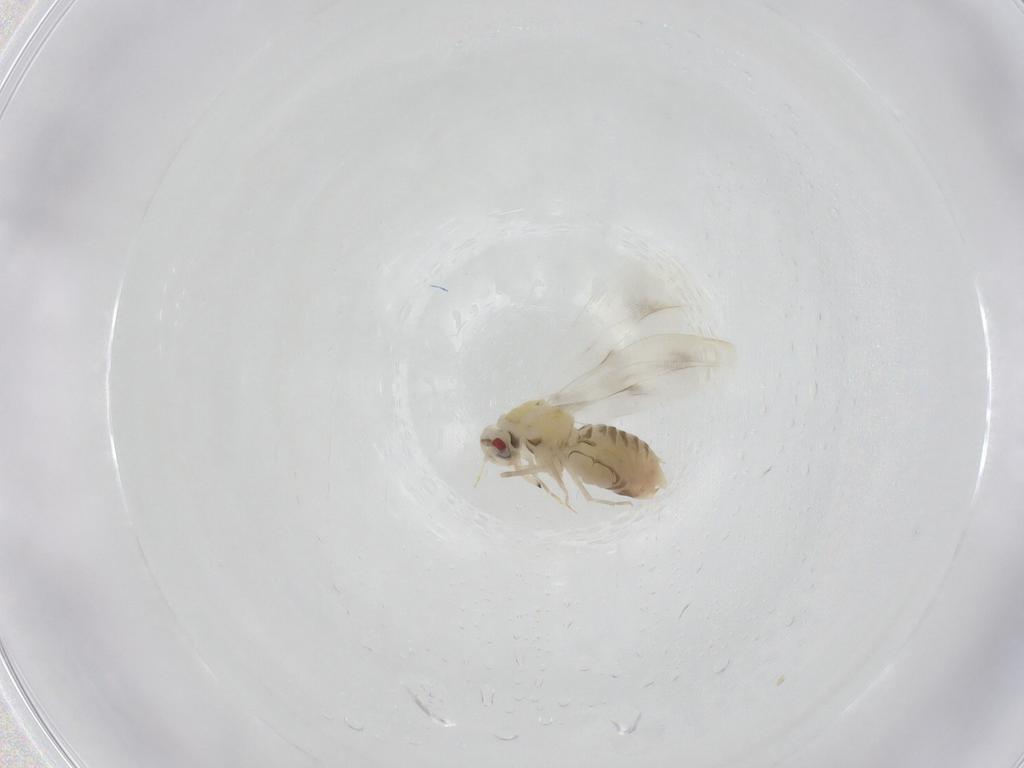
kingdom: Animalia
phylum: Arthropoda
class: Insecta
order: Hemiptera
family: Aleyrodidae
